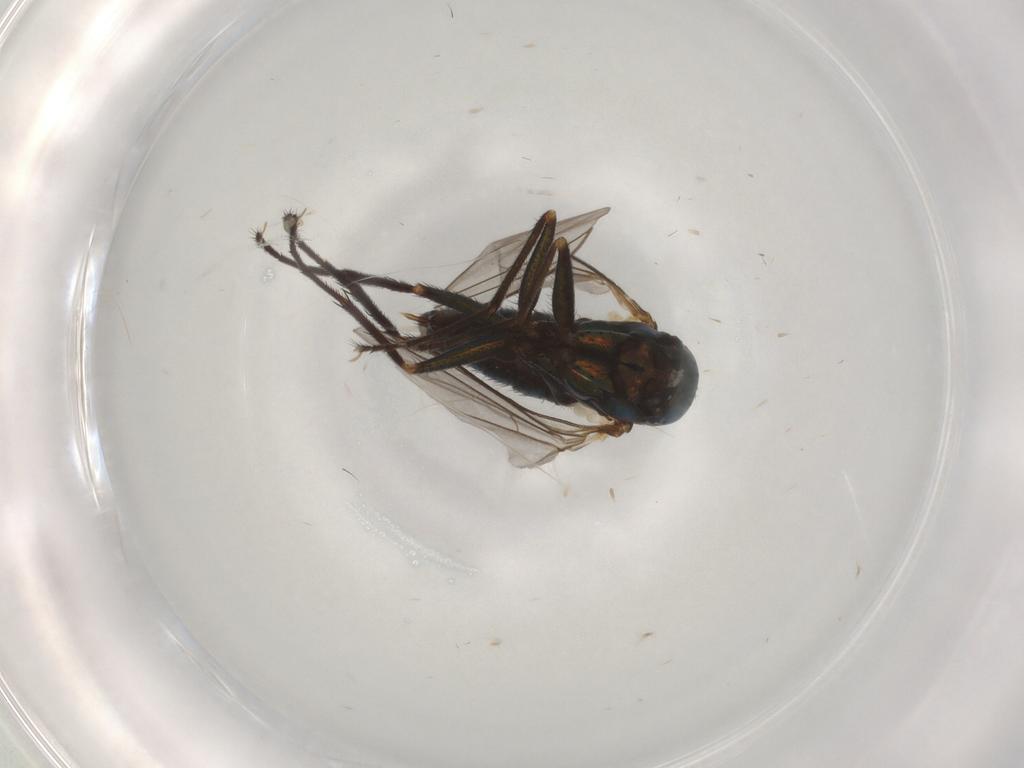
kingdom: Animalia
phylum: Arthropoda
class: Insecta
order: Diptera
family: Dolichopodidae
